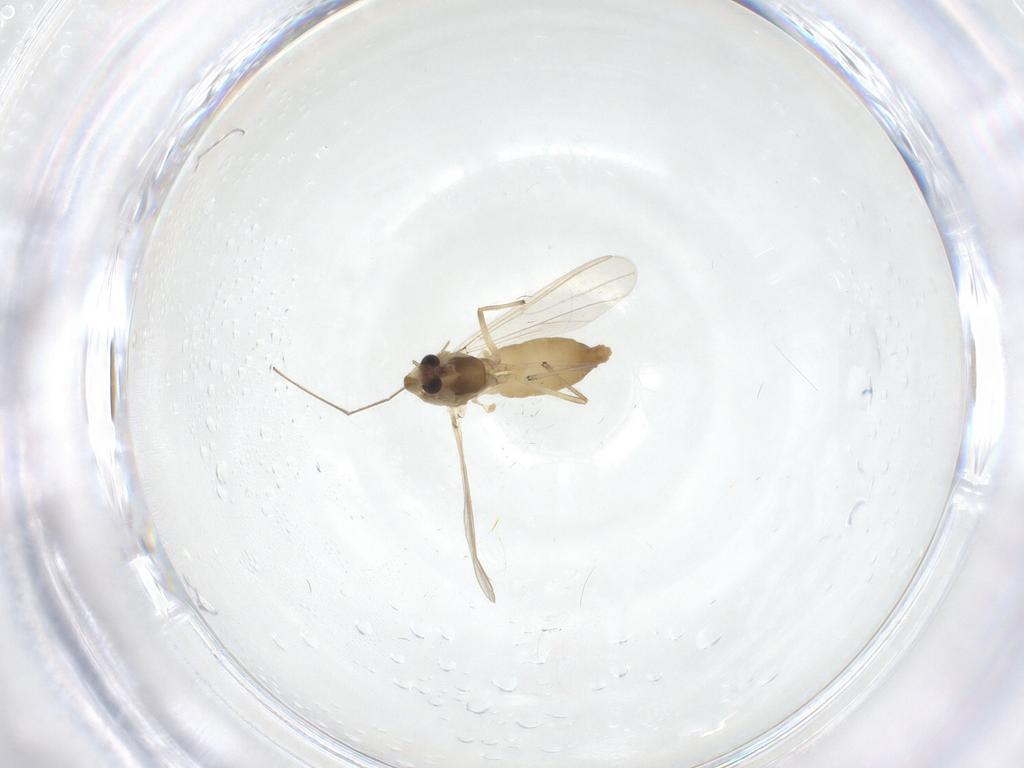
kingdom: Animalia
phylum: Arthropoda
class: Insecta
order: Diptera
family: Chironomidae
